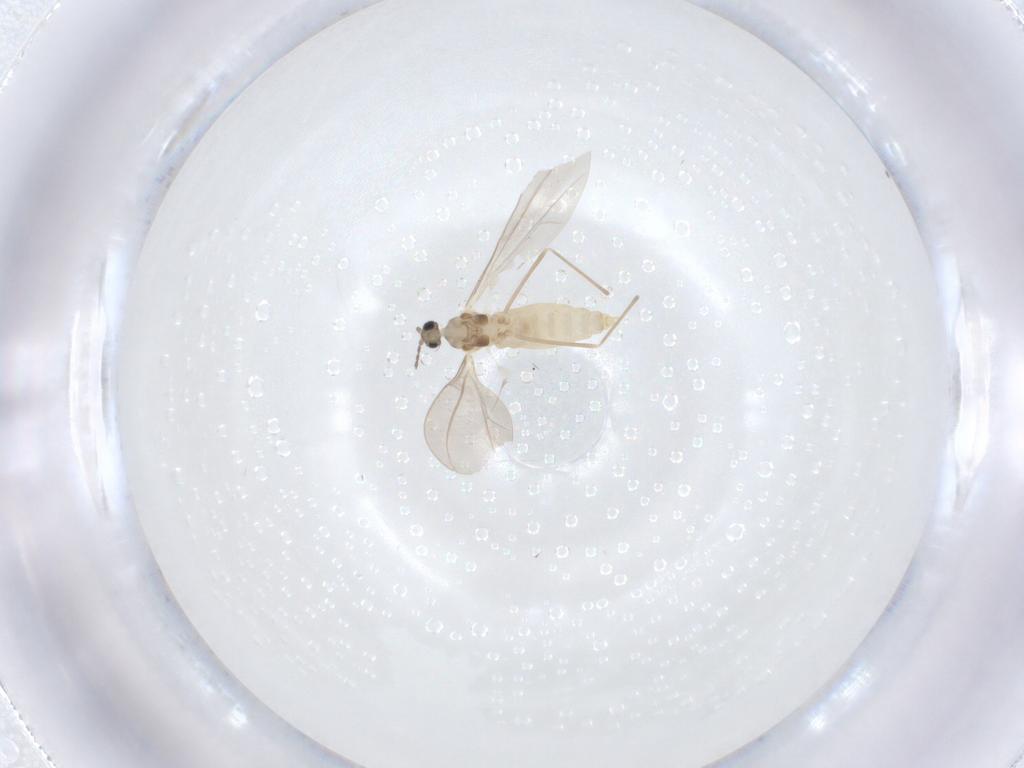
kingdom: Animalia
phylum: Arthropoda
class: Insecta
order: Diptera
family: Cecidomyiidae
